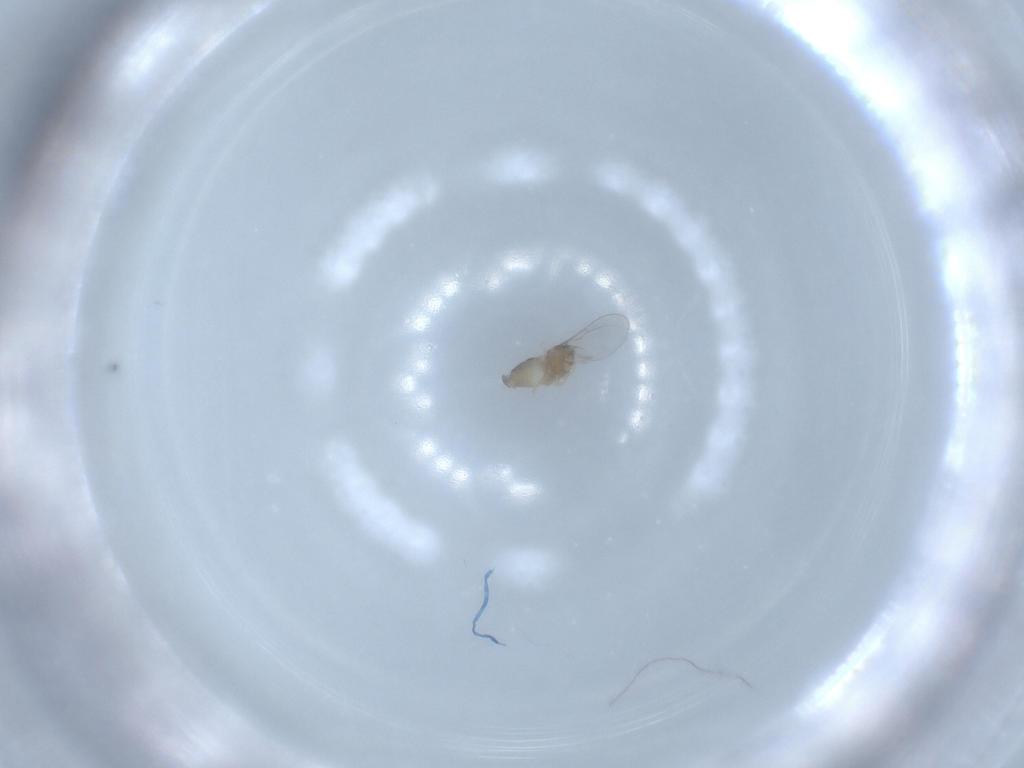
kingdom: Animalia
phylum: Arthropoda
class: Insecta
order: Diptera
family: Cecidomyiidae
